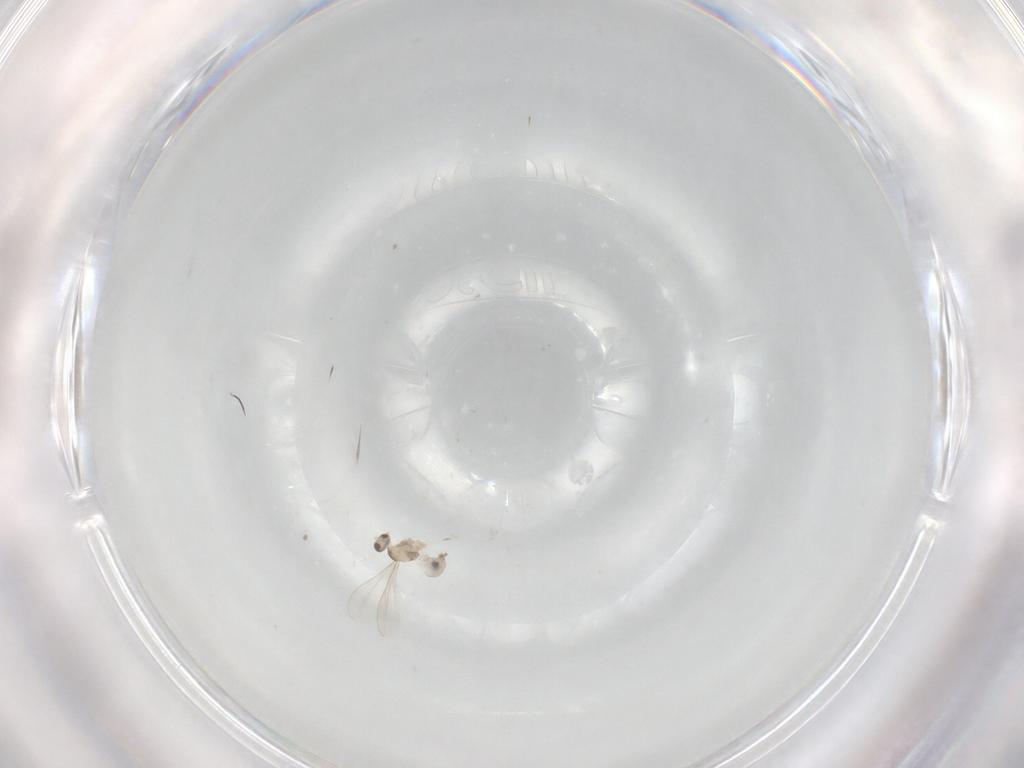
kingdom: Animalia
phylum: Arthropoda
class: Insecta
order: Diptera
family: Cecidomyiidae
